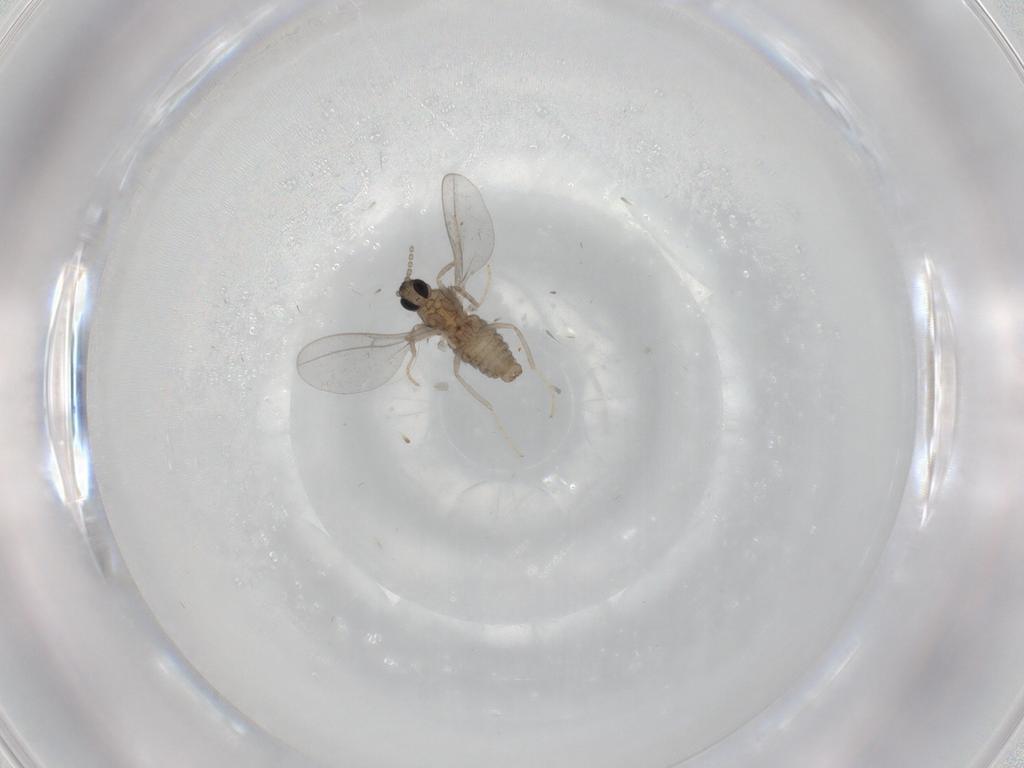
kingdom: Animalia
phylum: Arthropoda
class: Insecta
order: Diptera
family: Cecidomyiidae
